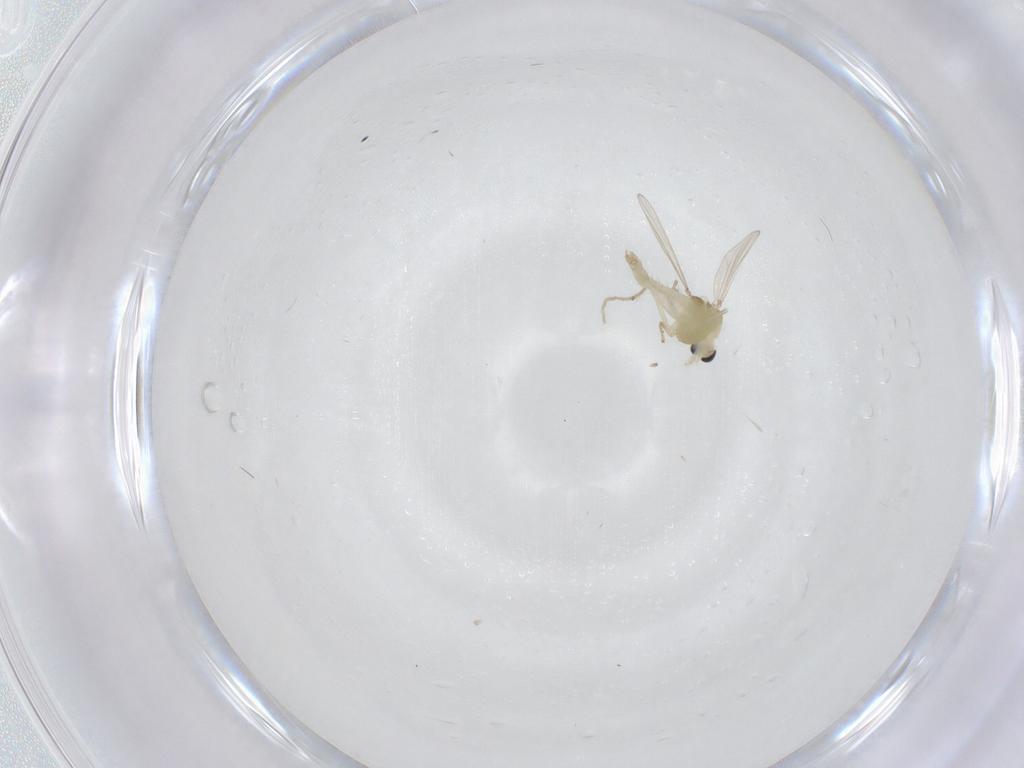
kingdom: Animalia
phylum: Arthropoda
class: Insecta
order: Diptera
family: Chironomidae
